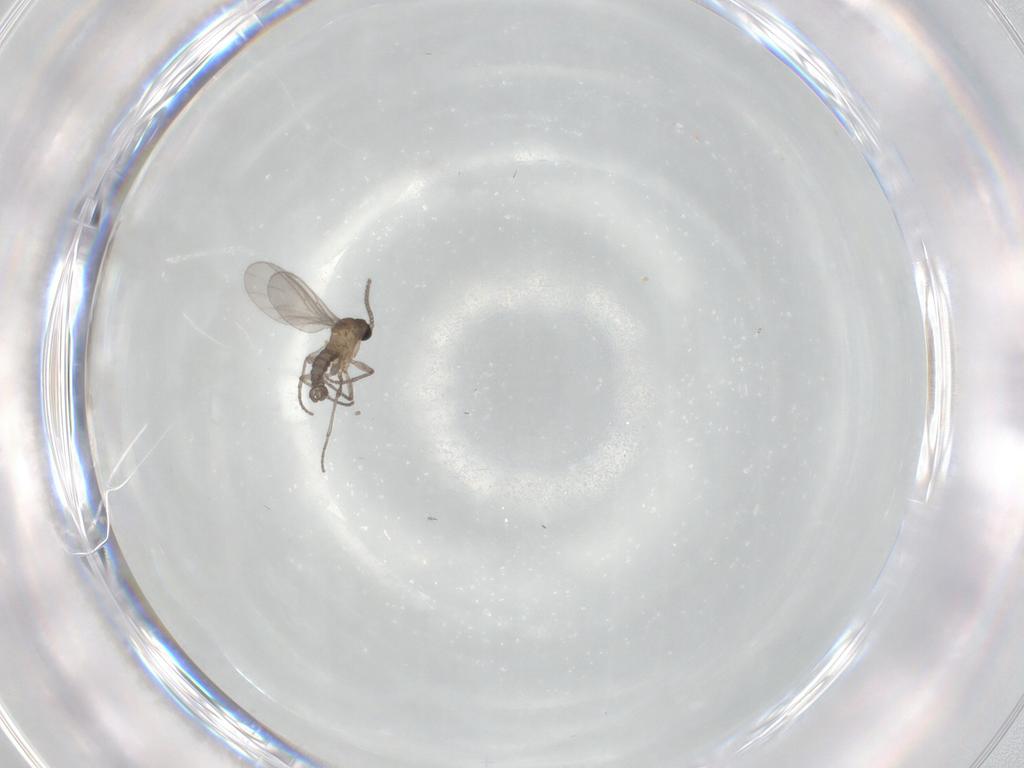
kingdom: Animalia
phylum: Arthropoda
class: Insecta
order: Diptera
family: Sciaridae
